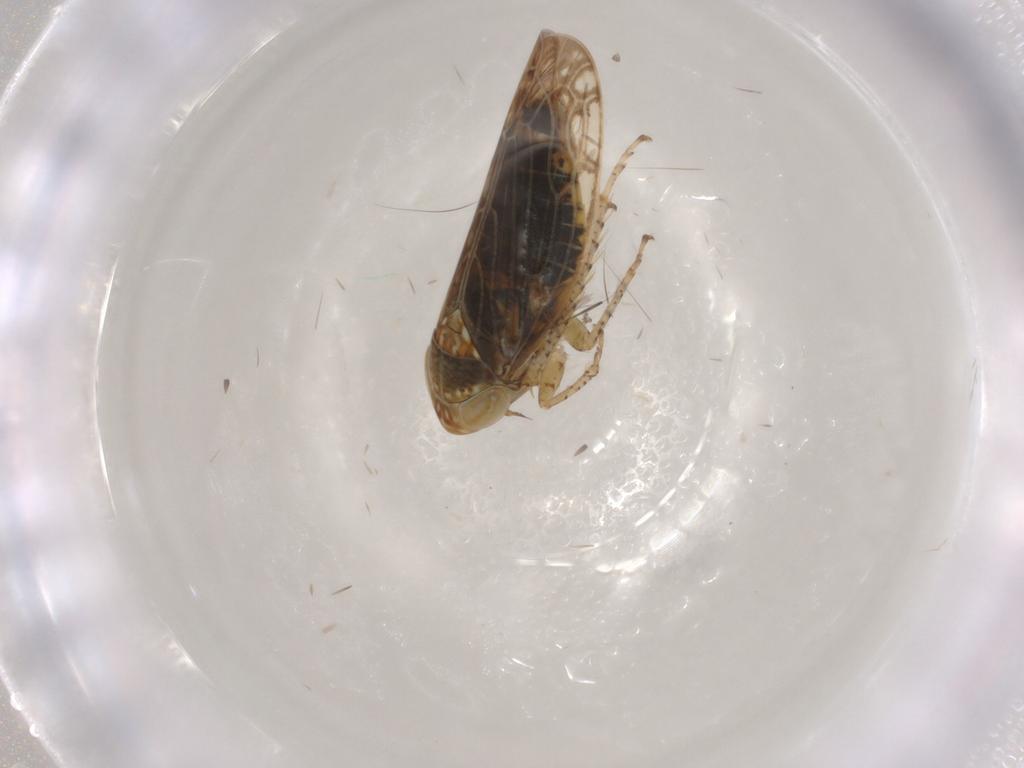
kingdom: Animalia
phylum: Arthropoda
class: Insecta
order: Hemiptera
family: Cicadellidae
